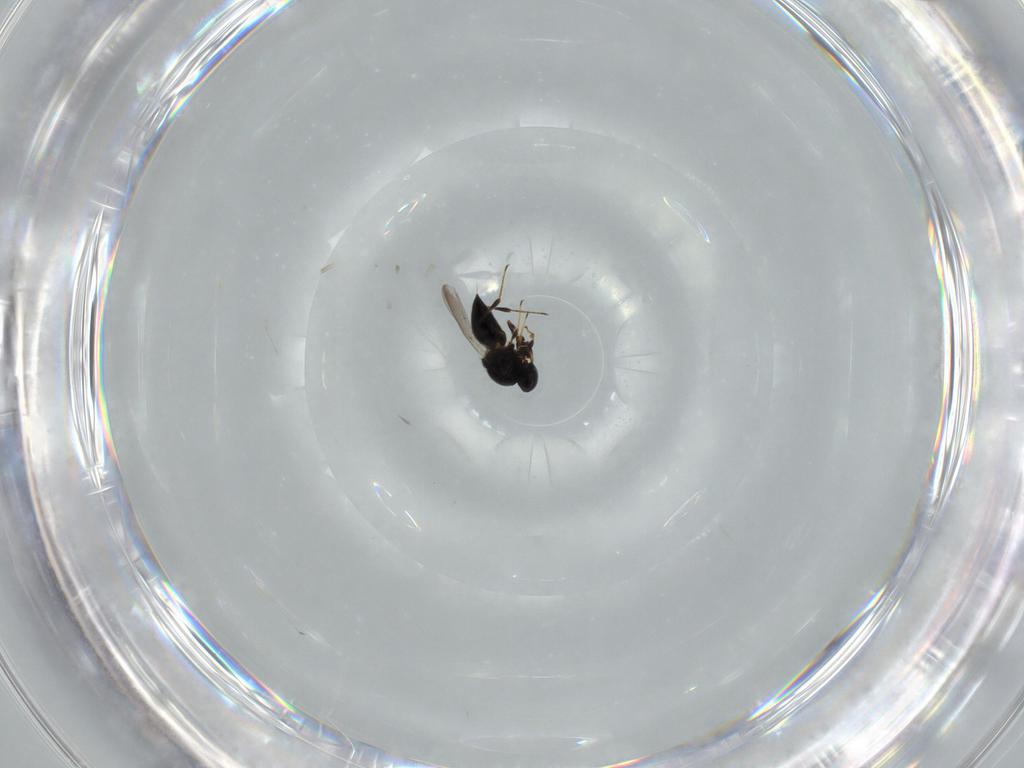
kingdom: Animalia
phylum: Arthropoda
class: Insecta
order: Hymenoptera
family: Platygastridae
